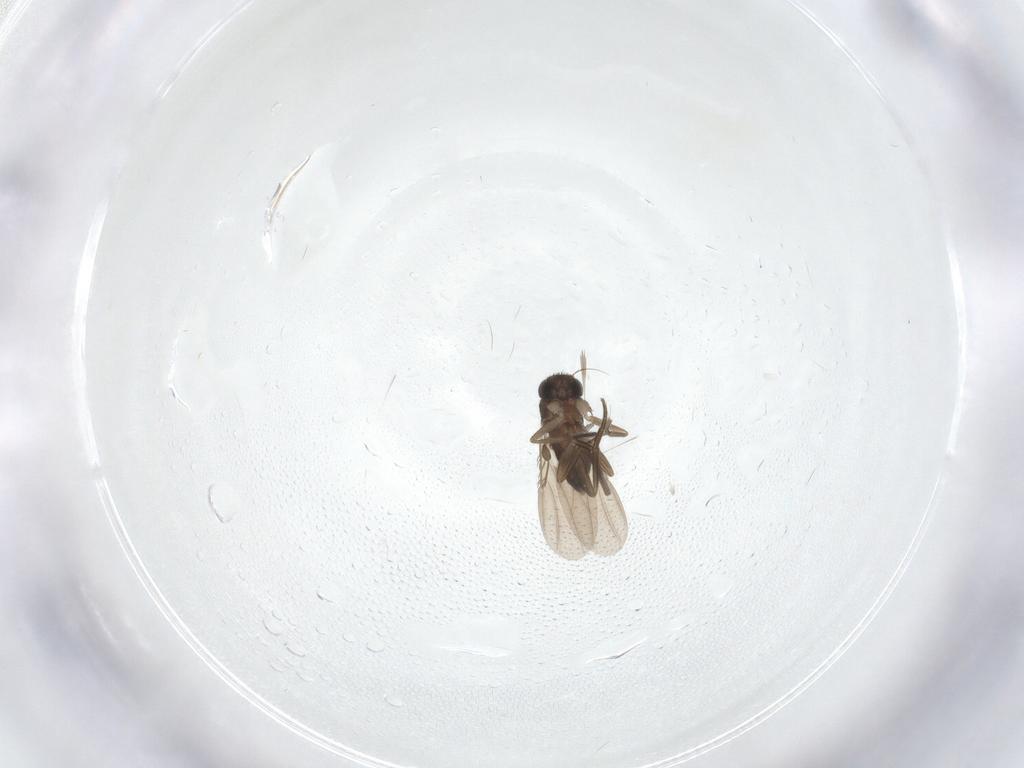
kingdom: Animalia
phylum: Arthropoda
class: Insecta
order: Diptera
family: Phoridae
